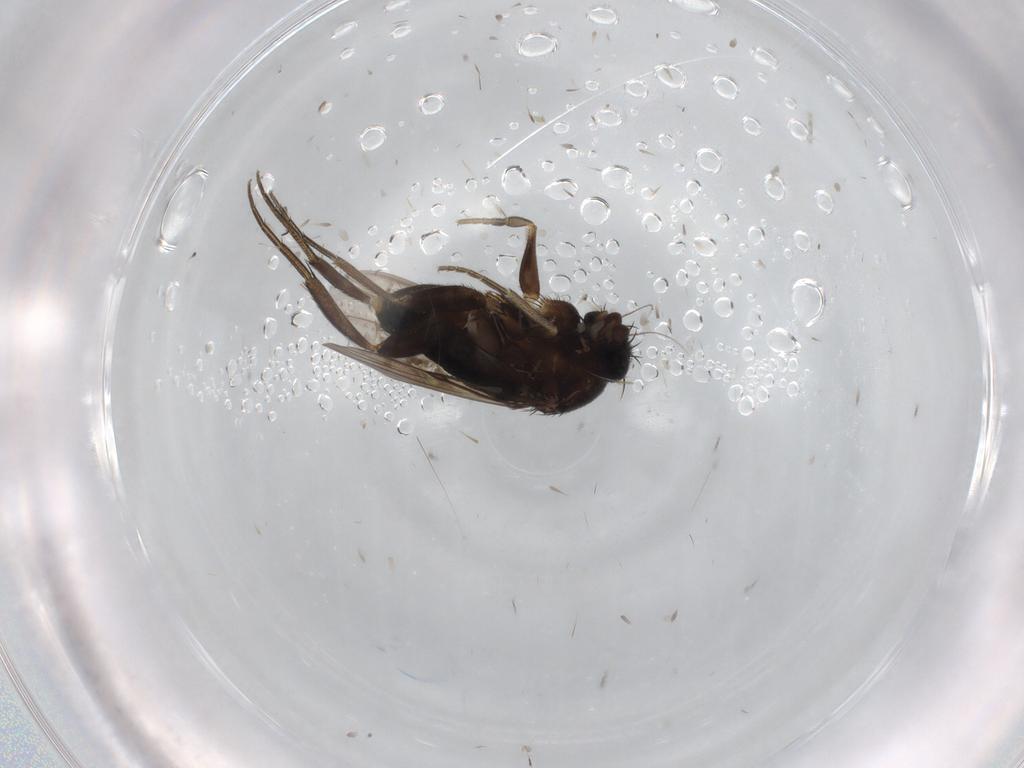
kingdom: Animalia
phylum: Arthropoda
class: Insecta
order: Diptera
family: Sciaridae
